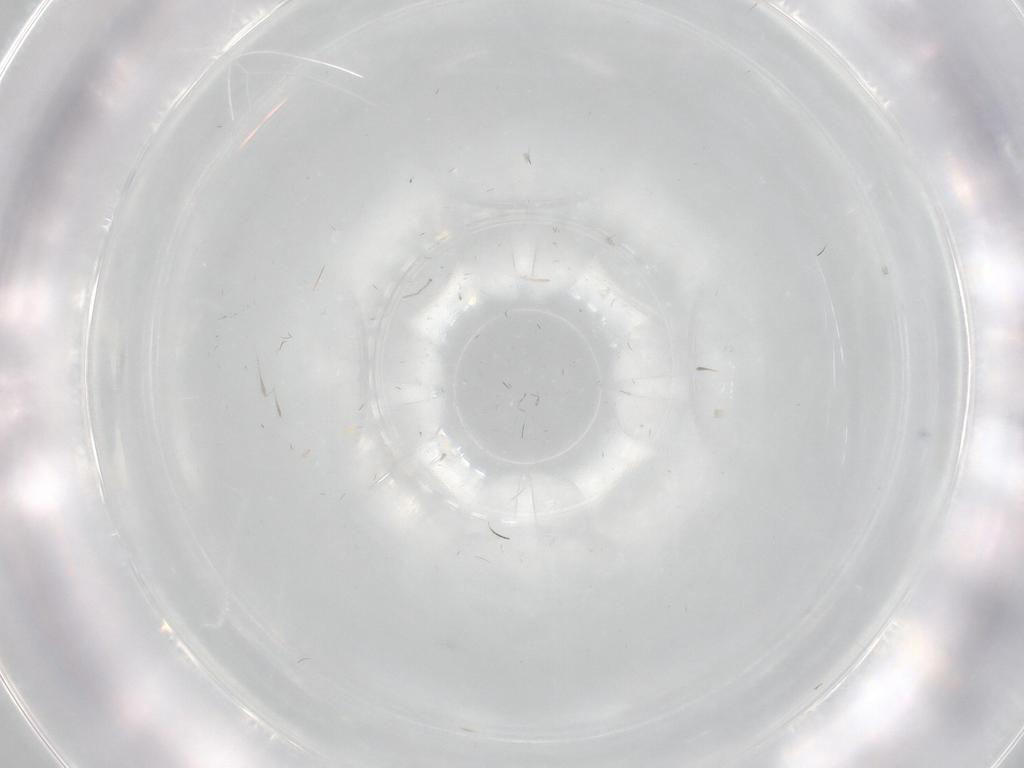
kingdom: Animalia
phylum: Arthropoda
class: Insecta
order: Diptera
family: Cecidomyiidae
